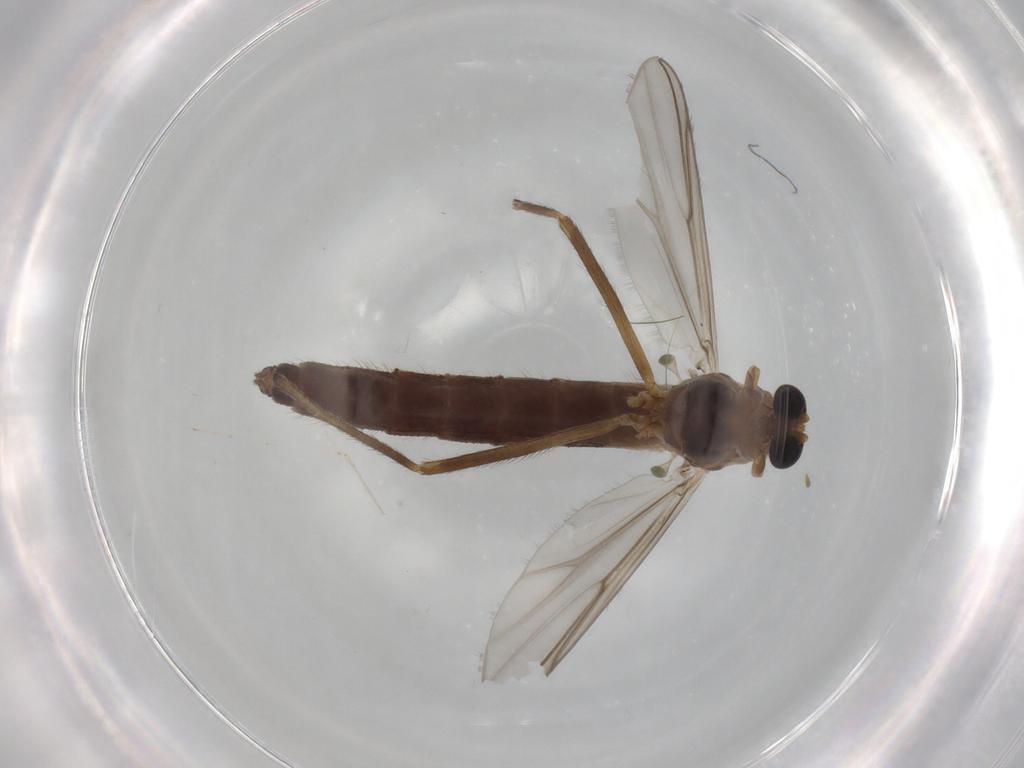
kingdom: Animalia
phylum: Arthropoda
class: Insecta
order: Diptera
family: Chironomidae
